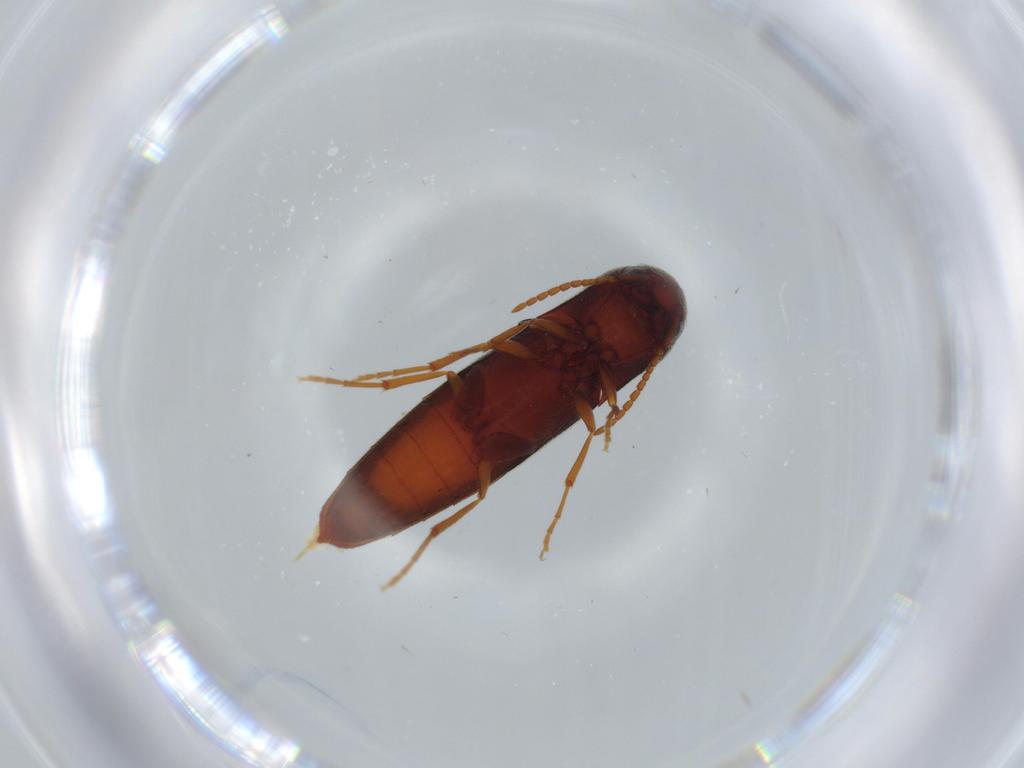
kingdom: Animalia
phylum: Arthropoda
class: Insecta
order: Coleoptera
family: Eucnemidae
